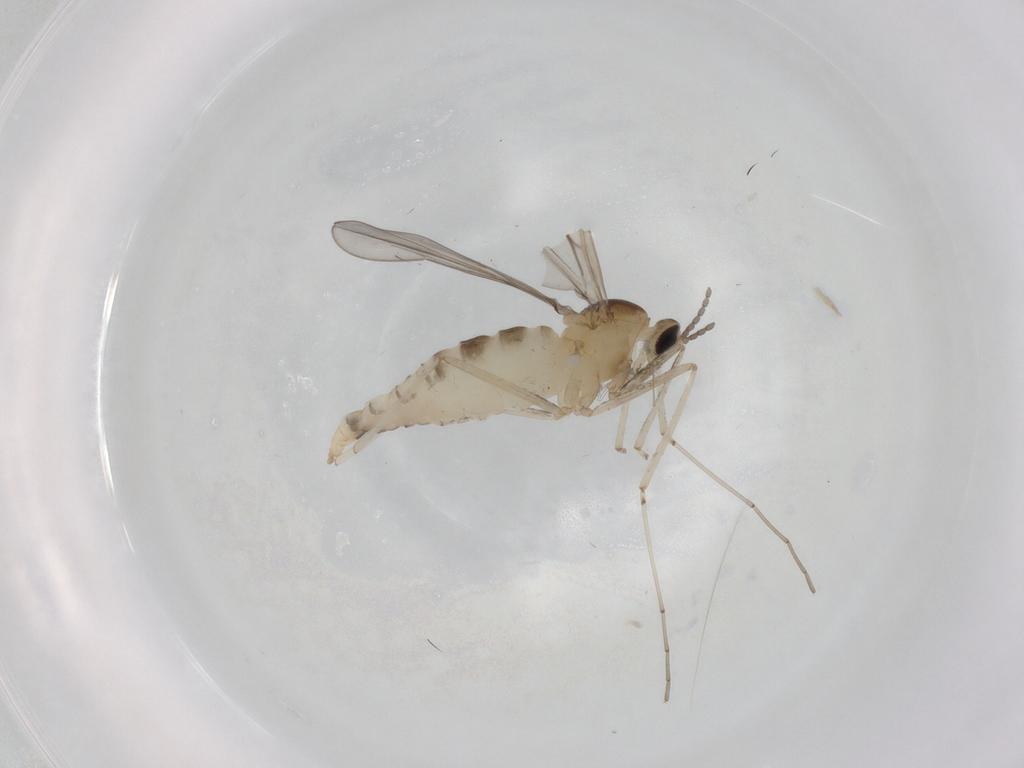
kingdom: Animalia
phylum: Arthropoda
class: Insecta
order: Diptera
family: Cecidomyiidae
